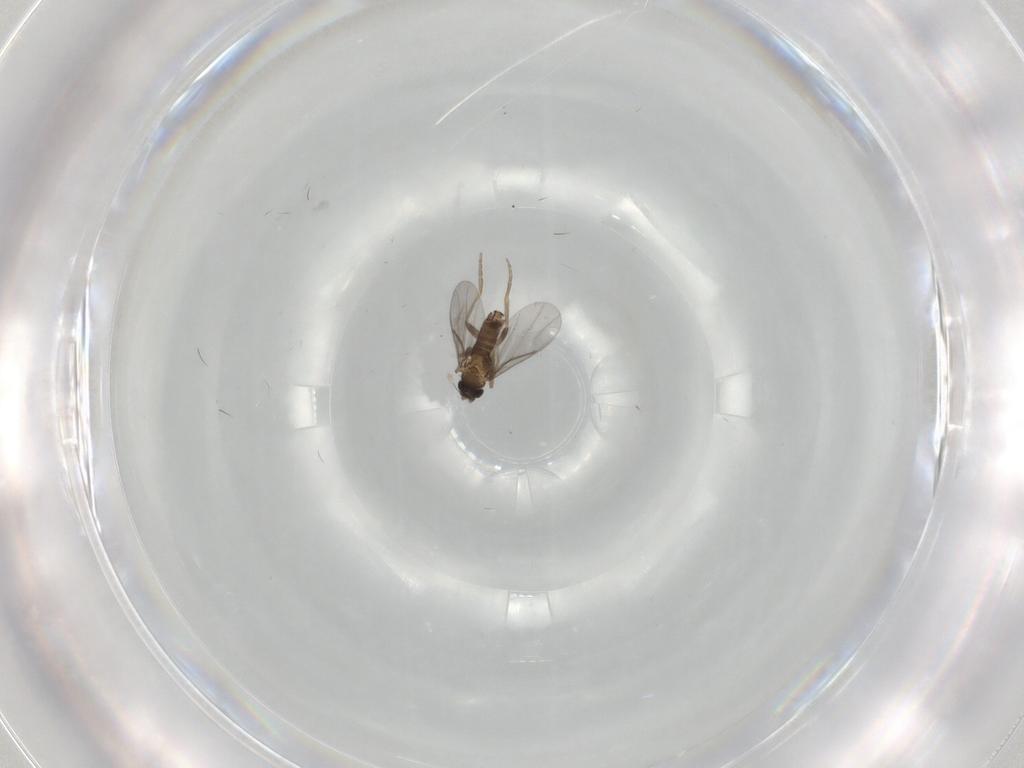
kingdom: Animalia
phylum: Arthropoda
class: Insecta
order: Diptera
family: Sciaridae
